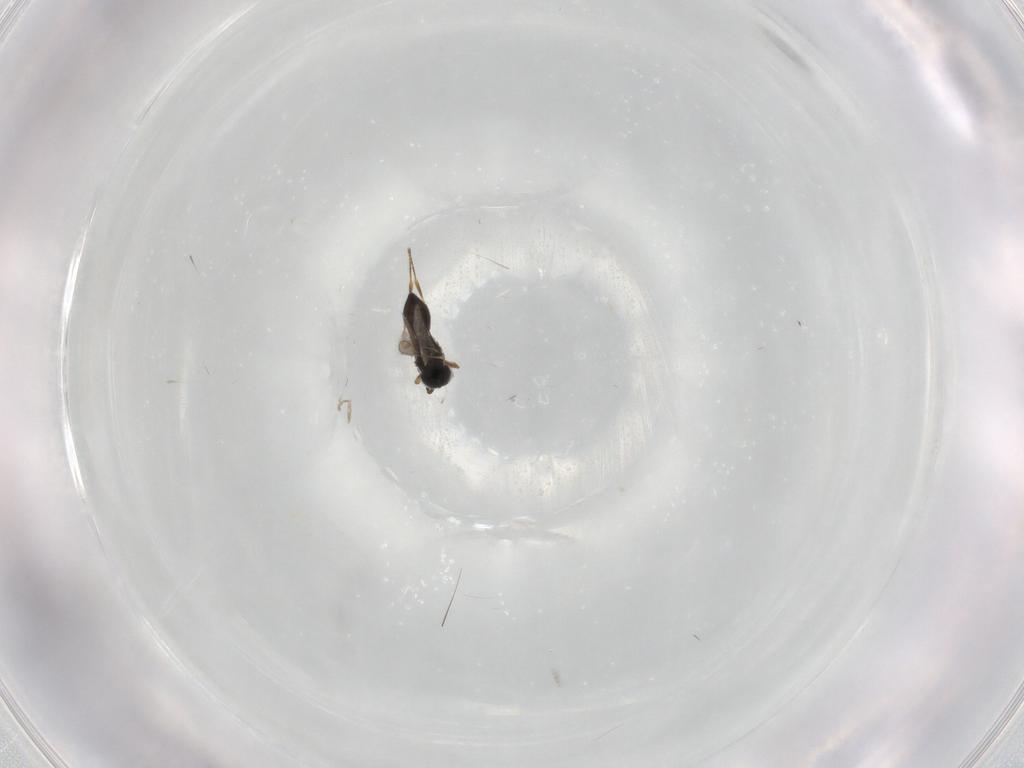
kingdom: Animalia
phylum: Arthropoda
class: Insecta
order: Hymenoptera
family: Scelionidae
